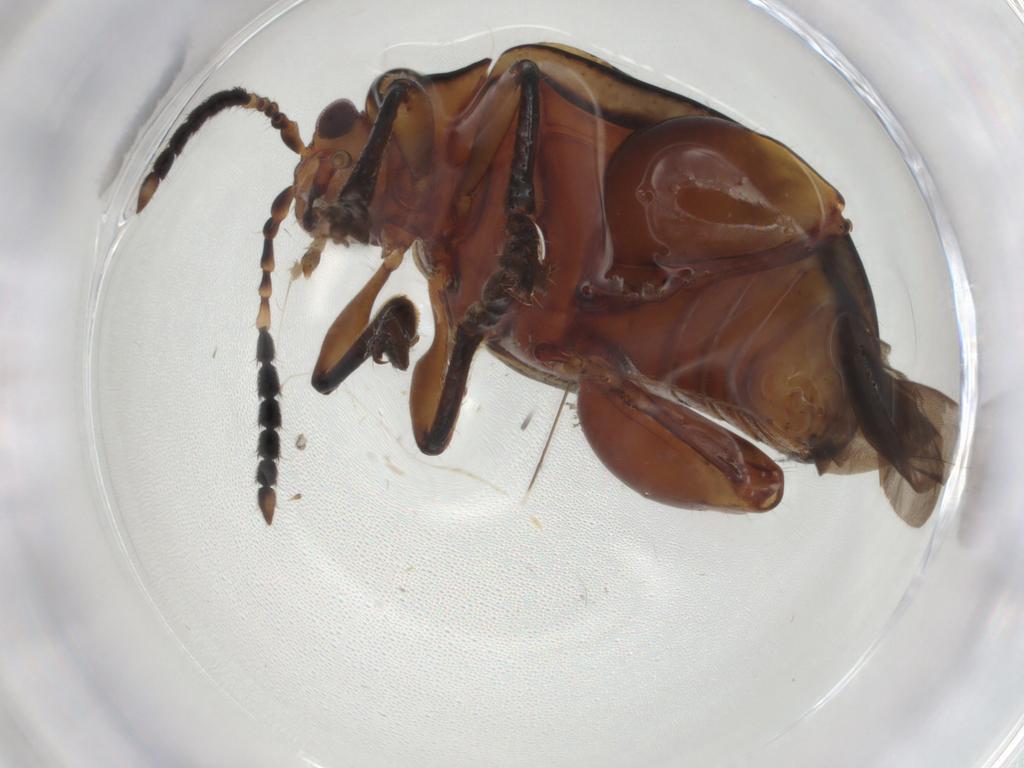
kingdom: Animalia
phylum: Arthropoda
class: Insecta
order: Coleoptera
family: Chrysomelidae
